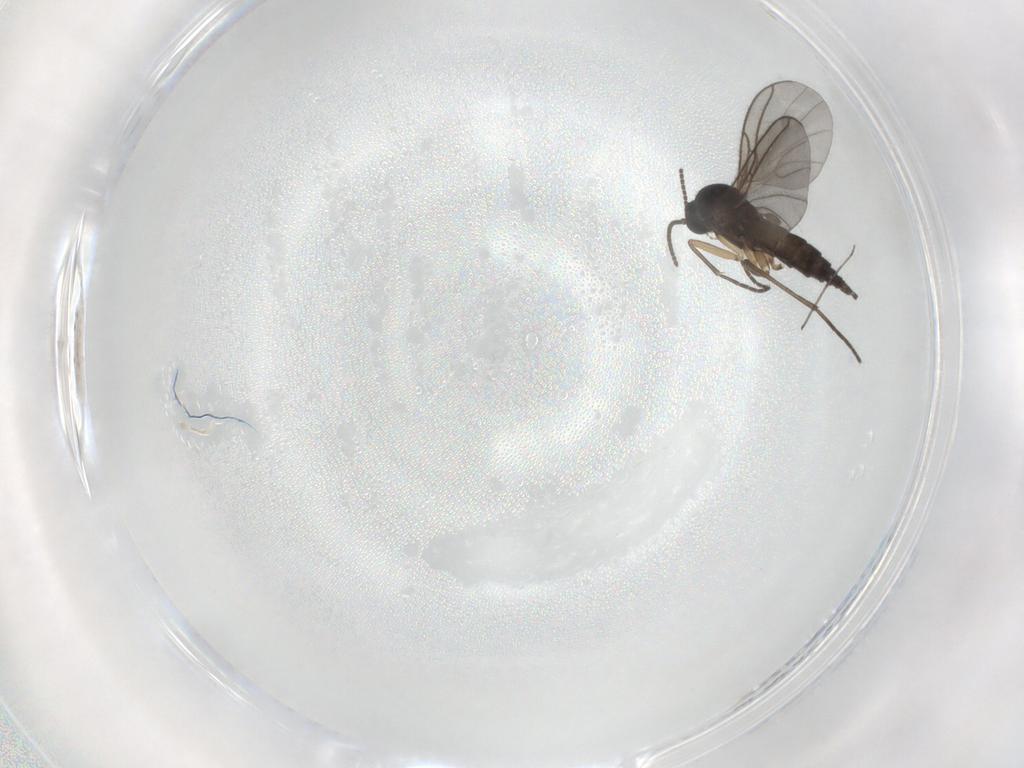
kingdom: Animalia
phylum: Arthropoda
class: Insecta
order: Diptera
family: Sciaridae
